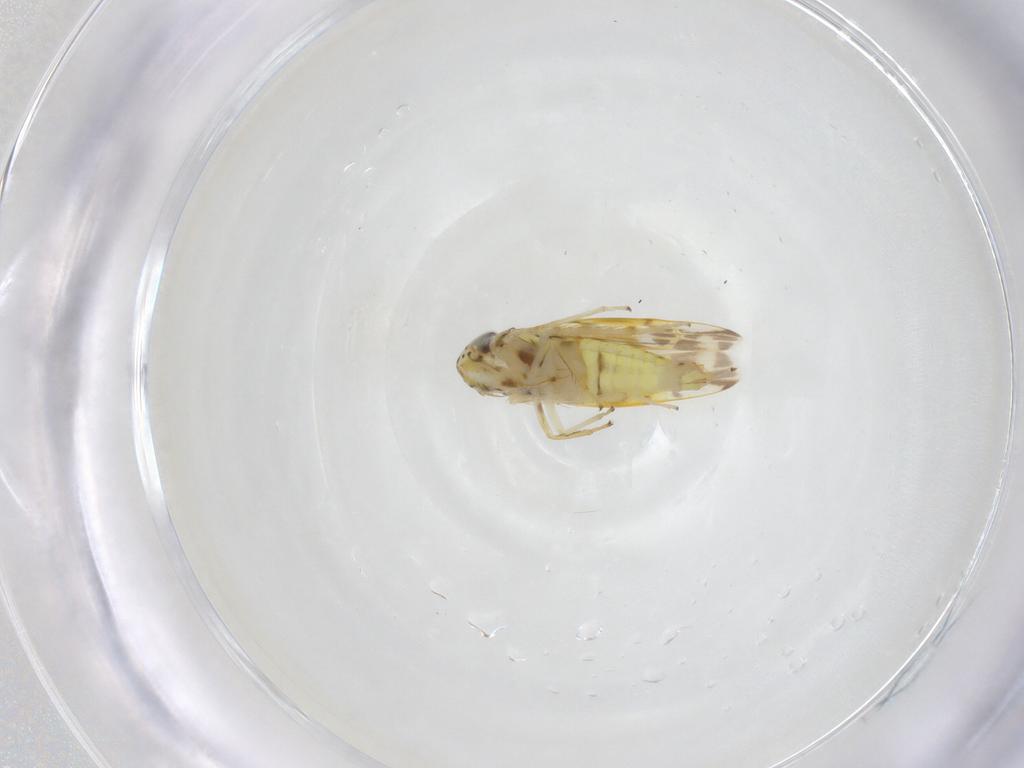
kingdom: Animalia
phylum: Arthropoda
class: Insecta
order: Hemiptera
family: Cicadellidae
